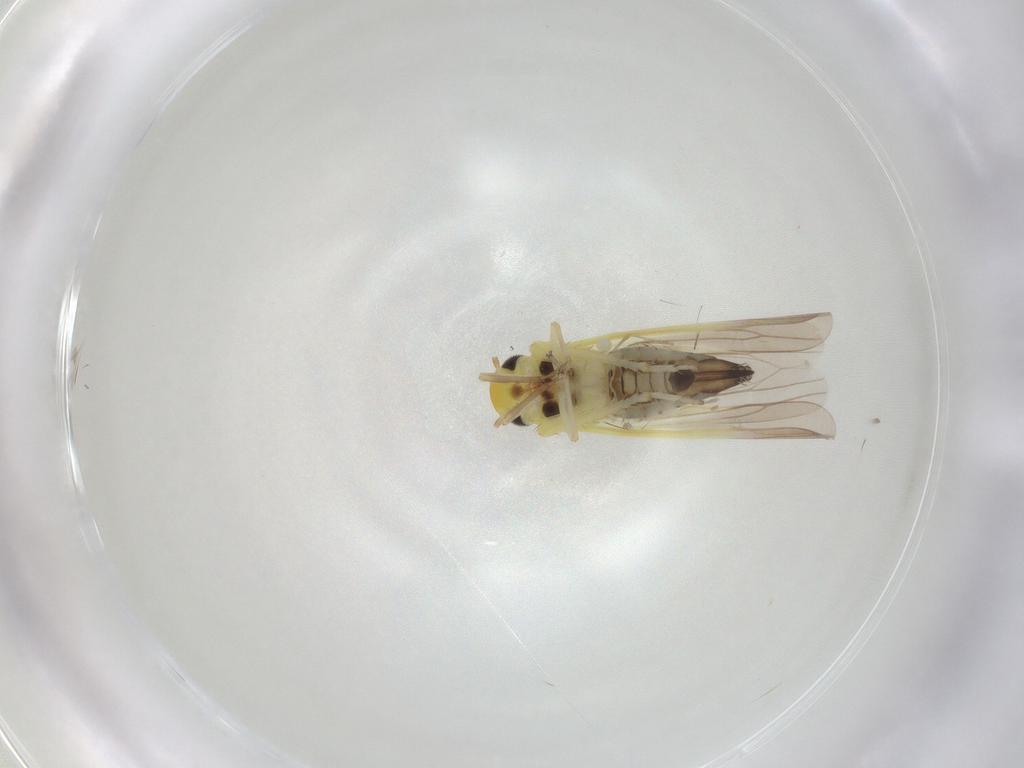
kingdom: Animalia
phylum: Arthropoda
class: Insecta
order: Hemiptera
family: Cicadellidae
